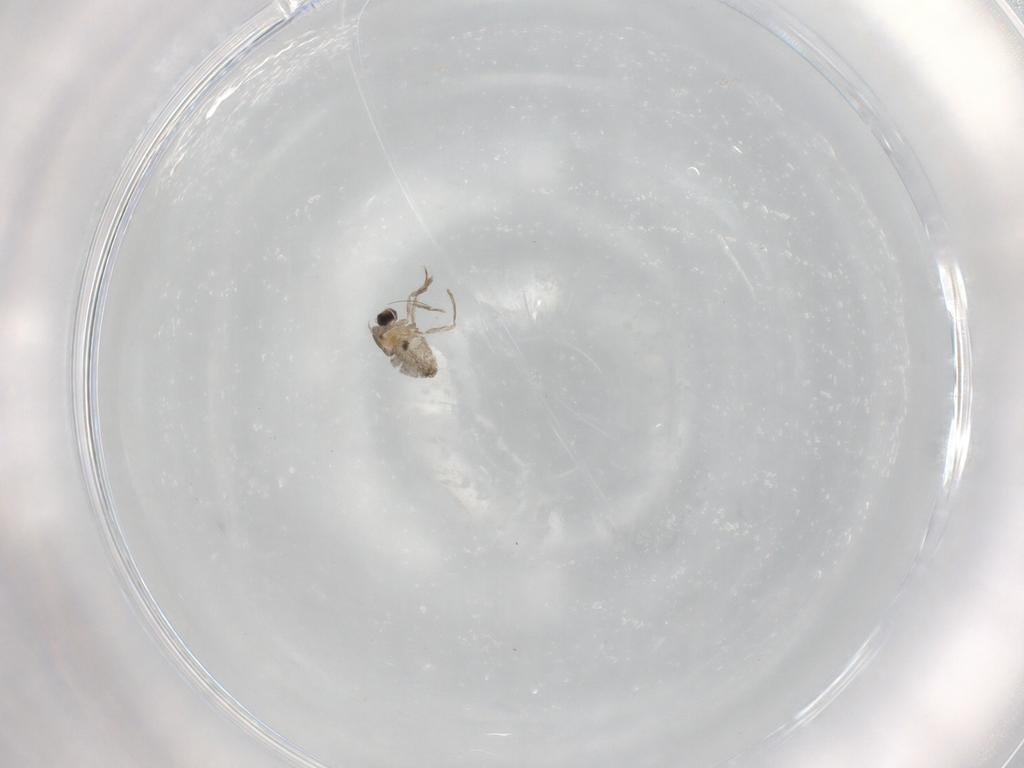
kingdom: Animalia
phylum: Arthropoda
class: Insecta
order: Diptera
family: Cecidomyiidae
